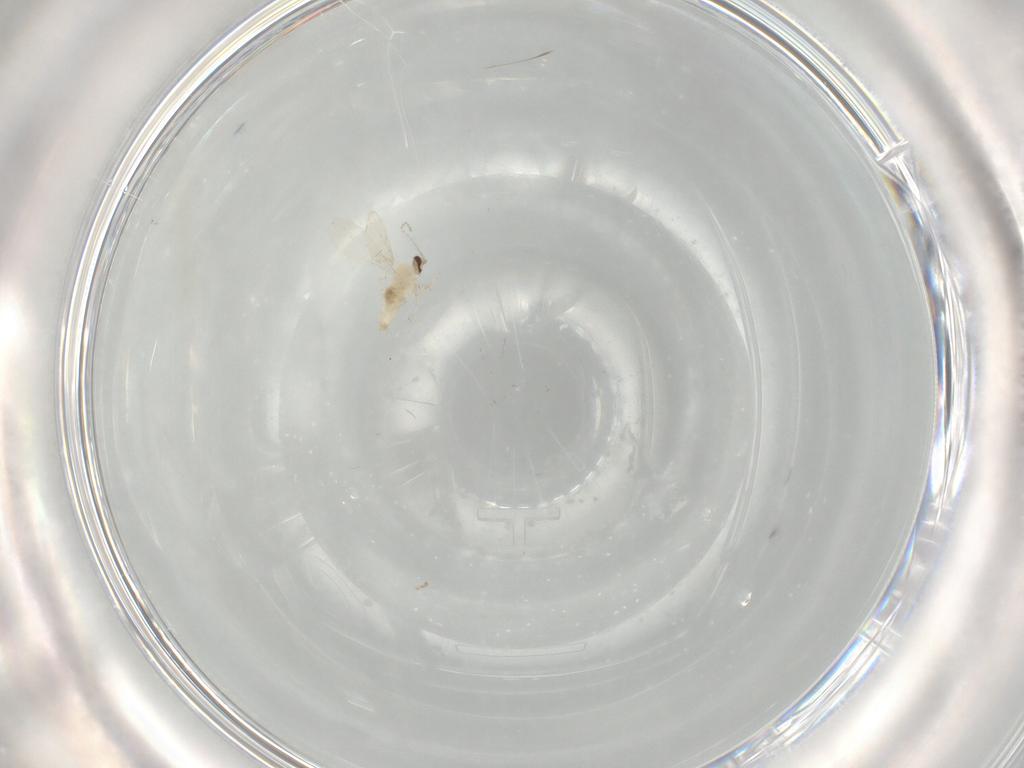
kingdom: Animalia
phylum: Arthropoda
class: Insecta
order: Diptera
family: Cecidomyiidae
